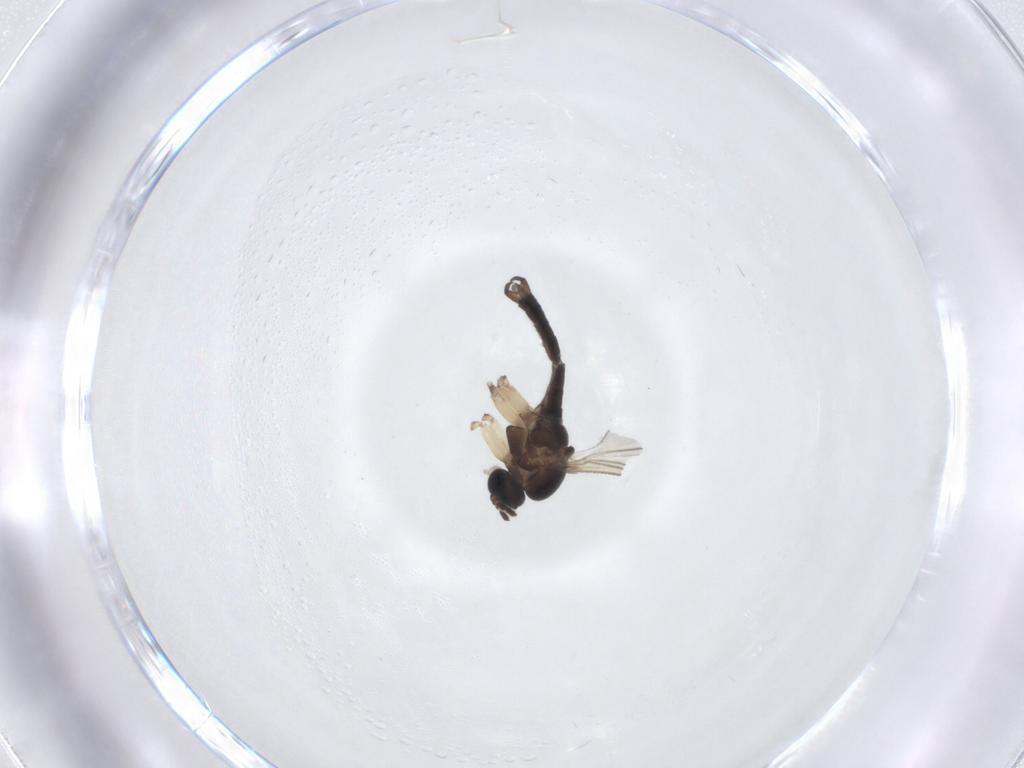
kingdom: Animalia
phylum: Arthropoda
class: Insecta
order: Diptera
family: Sciaridae
